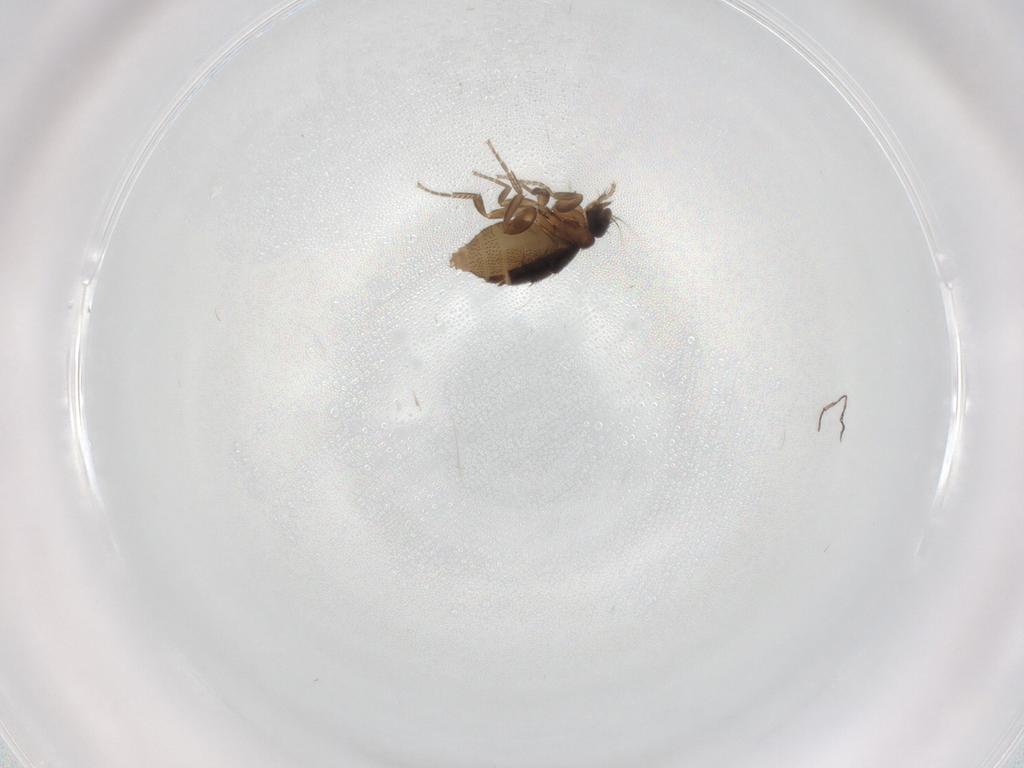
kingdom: Animalia
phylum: Arthropoda
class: Insecta
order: Diptera
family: Phoridae
